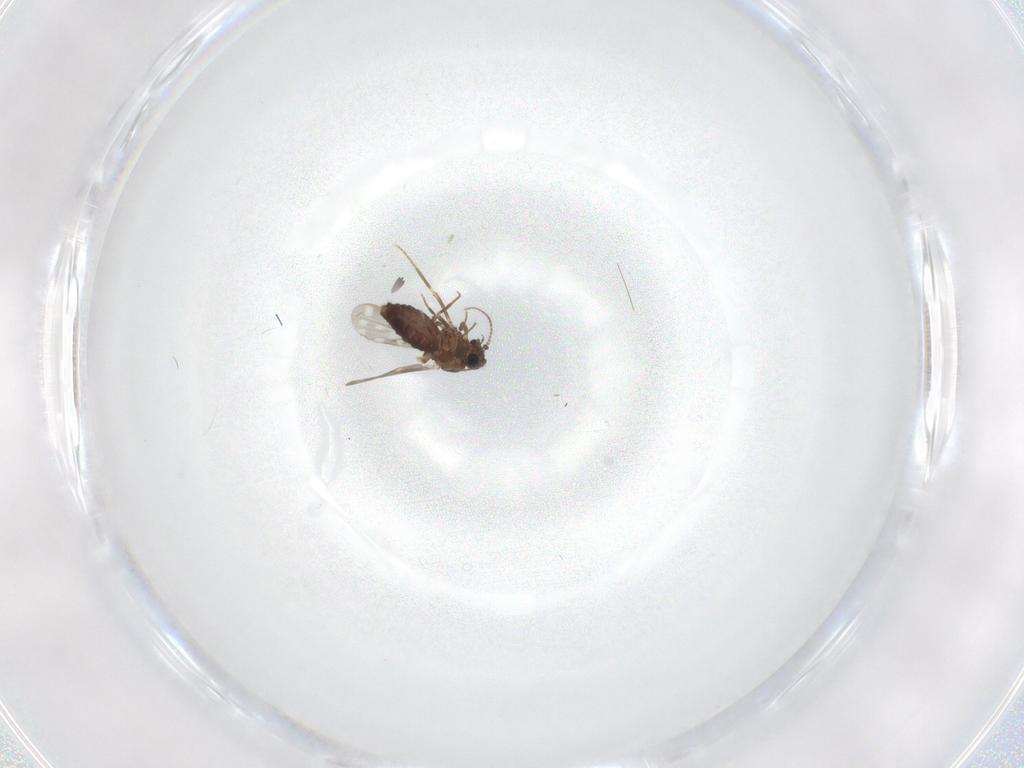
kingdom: Animalia
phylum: Arthropoda
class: Insecta
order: Diptera
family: Ceratopogonidae
